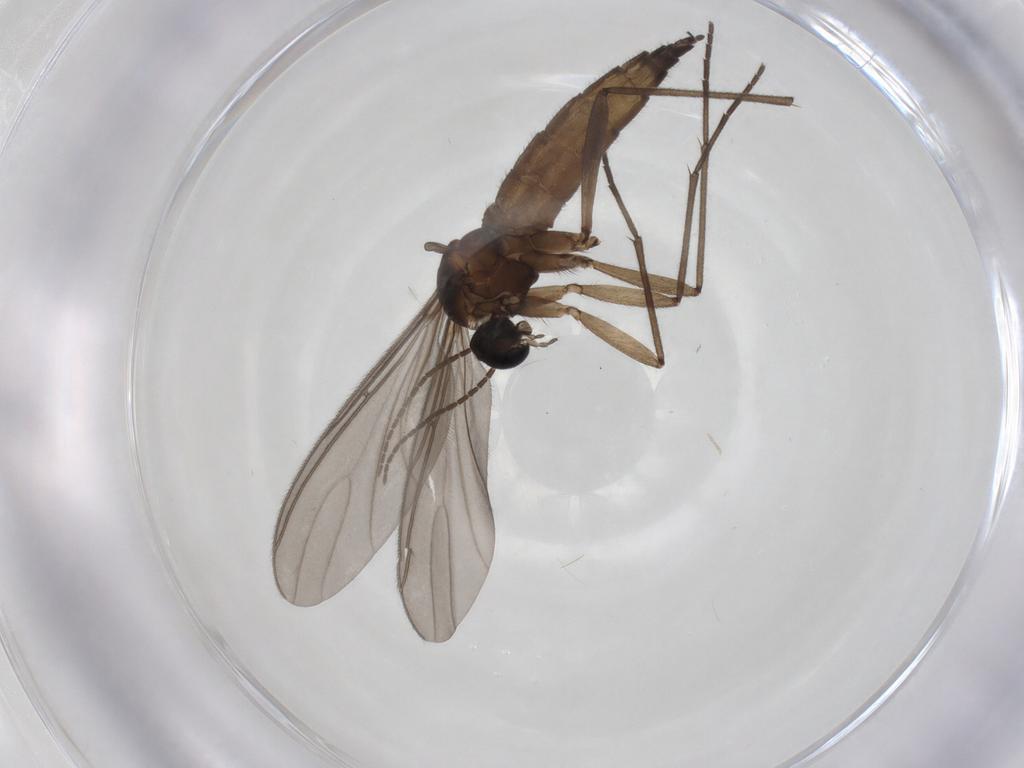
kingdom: Animalia
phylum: Arthropoda
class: Insecta
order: Diptera
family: Sciaridae
